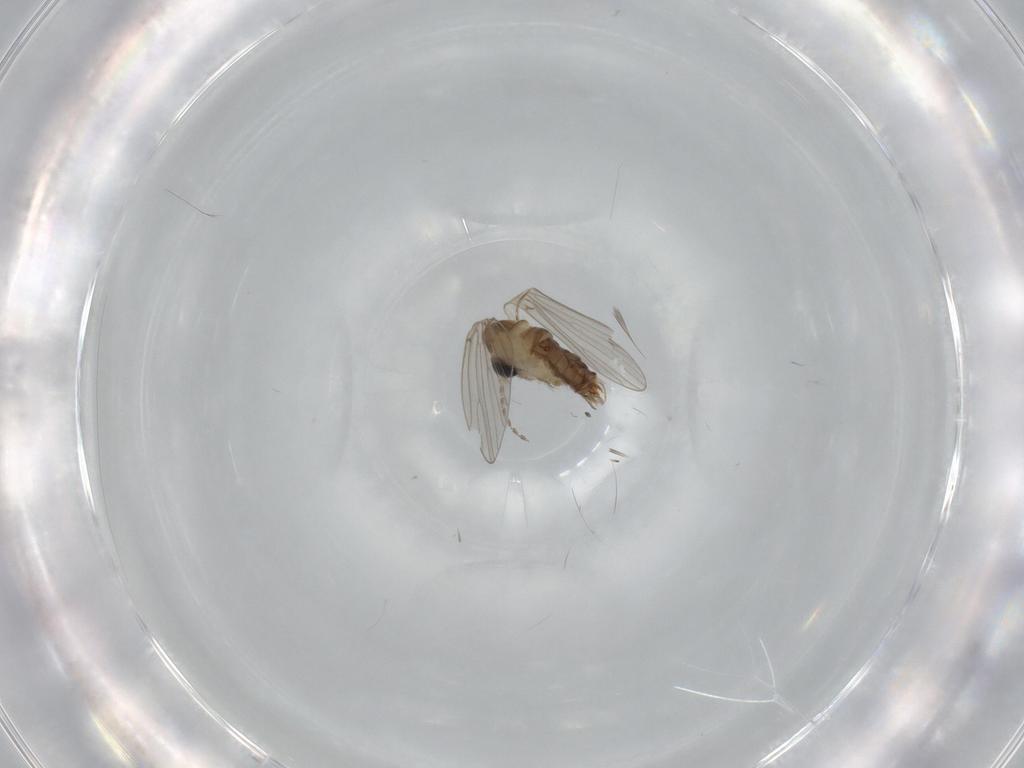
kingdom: Animalia
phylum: Arthropoda
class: Insecta
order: Diptera
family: Psychodidae
